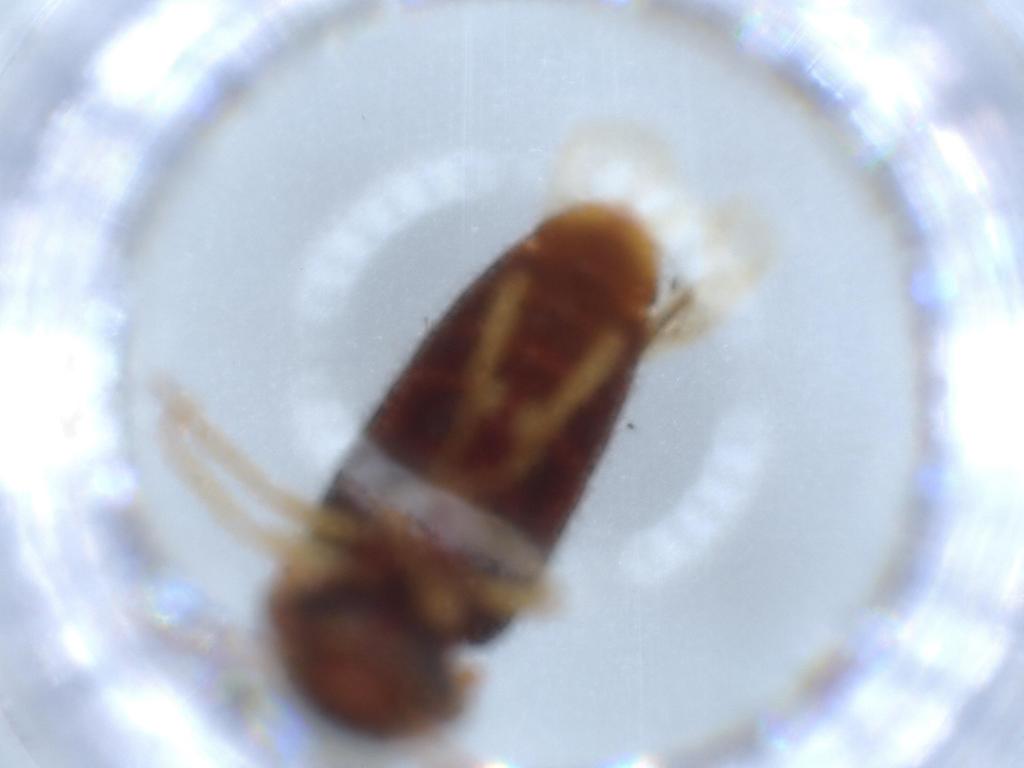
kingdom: Animalia
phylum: Arthropoda
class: Insecta
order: Coleoptera
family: Elateridae
